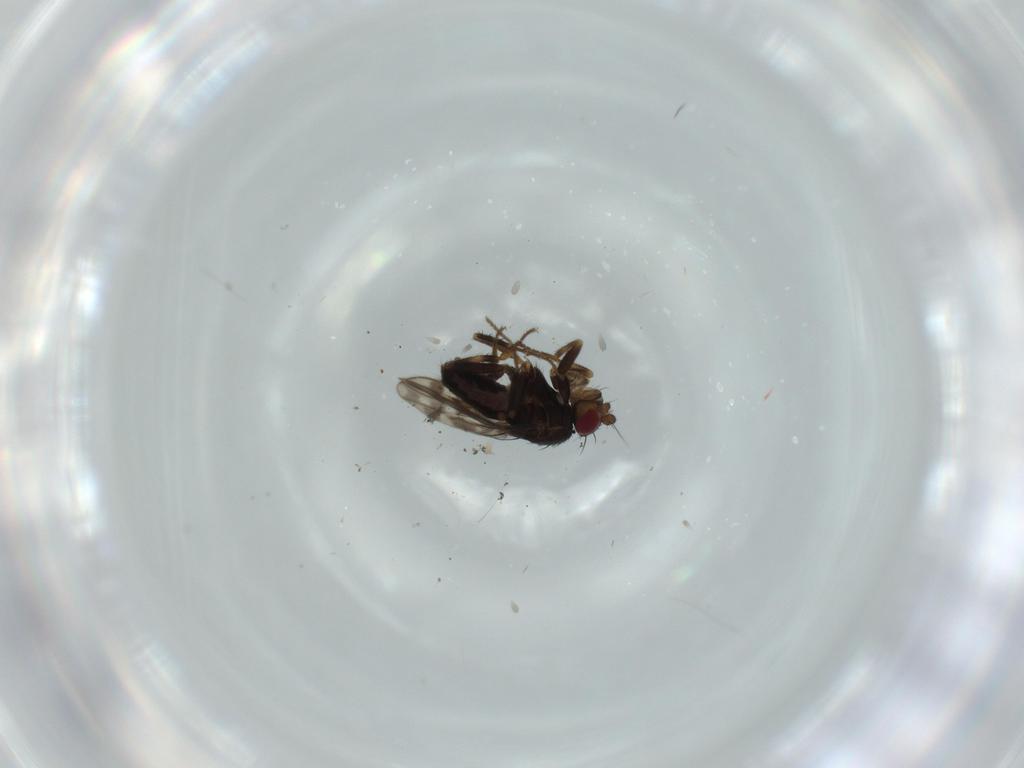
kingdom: Animalia
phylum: Arthropoda
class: Insecta
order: Diptera
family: Sphaeroceridae
